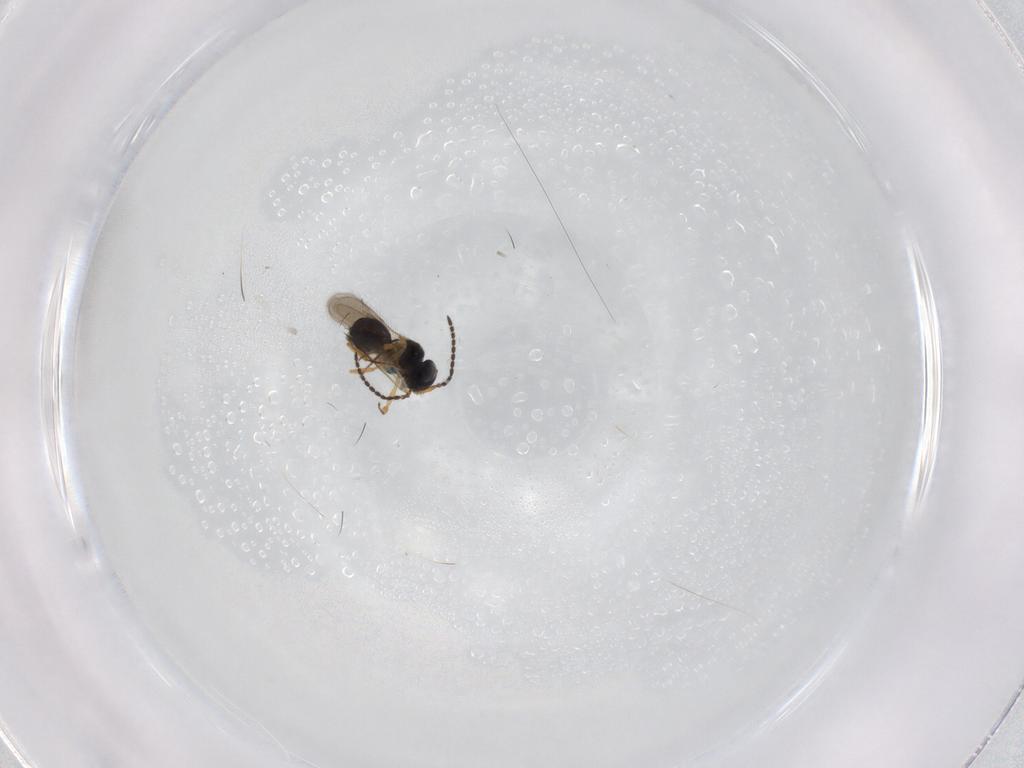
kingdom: Animalia
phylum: Arthropoda
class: Insecta
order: Hymenoptera
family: Scelionidae
